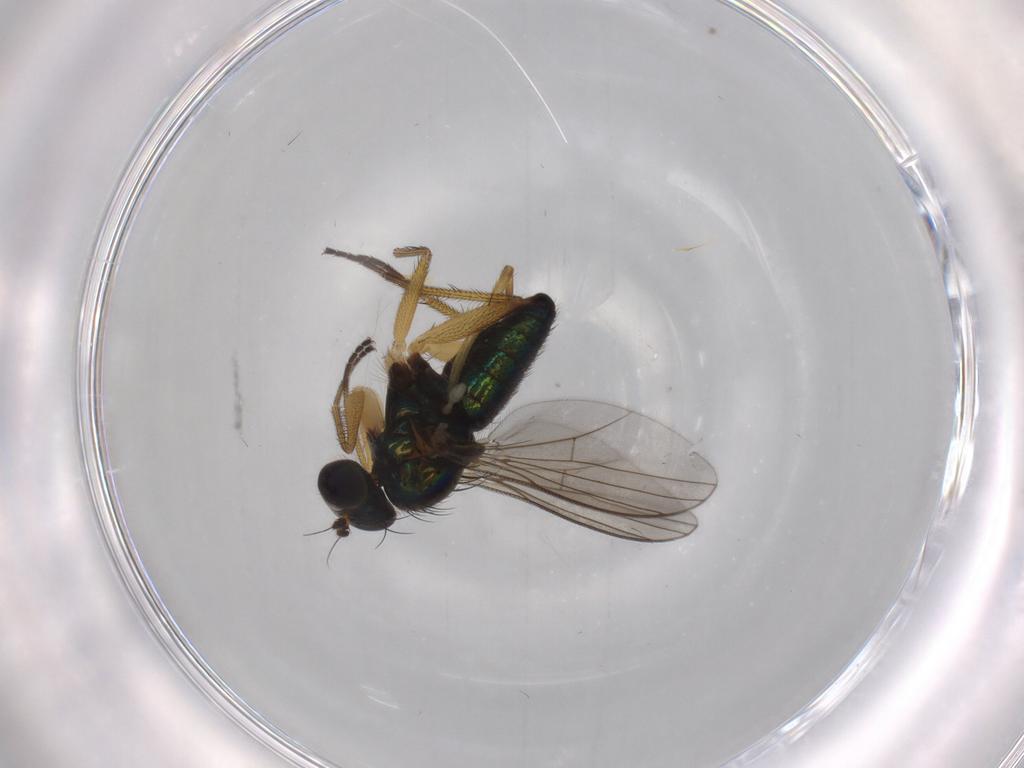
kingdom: Animalia
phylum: Arthropoda
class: Insecta
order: Diptera
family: Dolichopodidae
